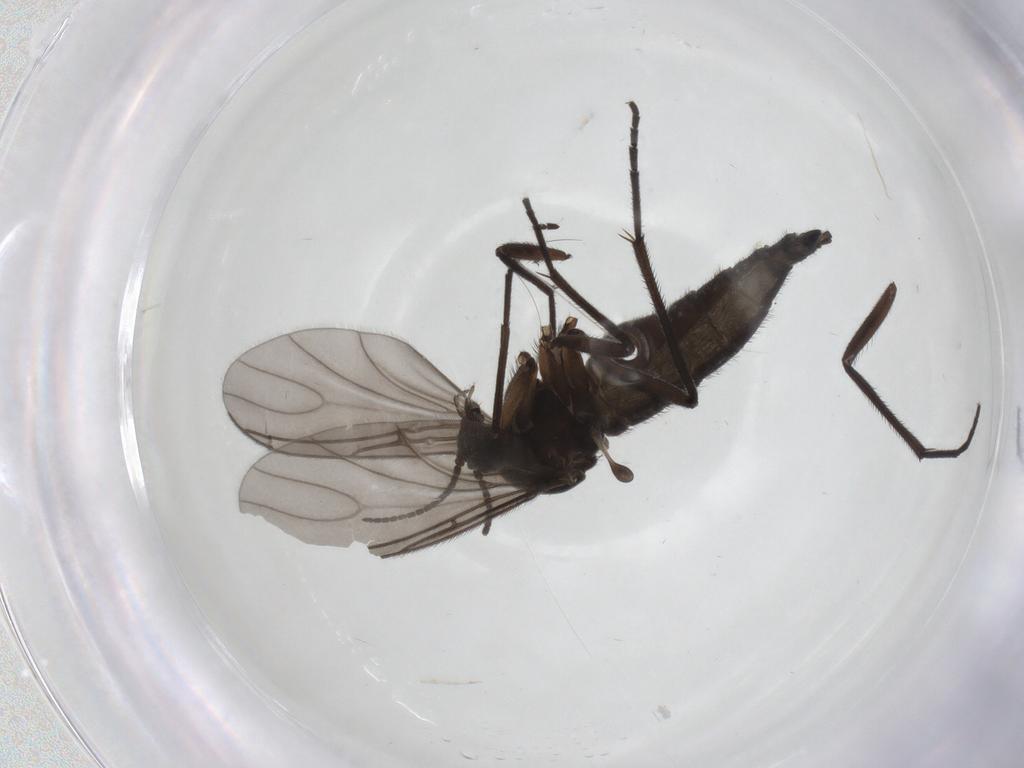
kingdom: Animalia
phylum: Arthropoda
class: Insecta
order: Diptera
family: Sciaridae
